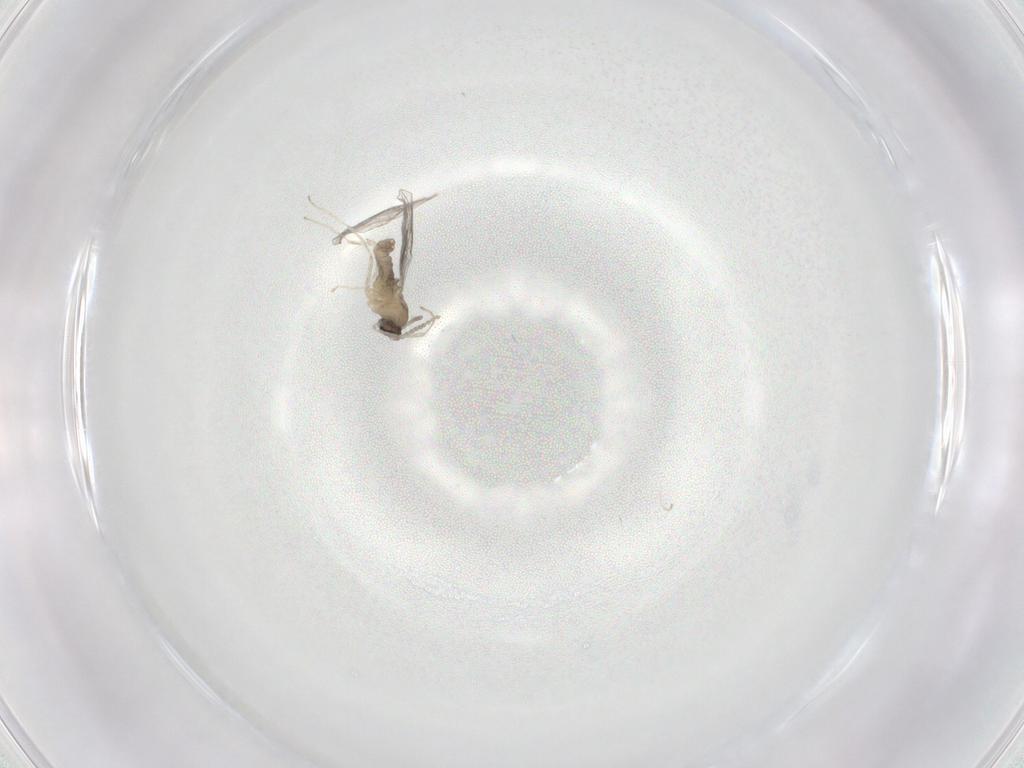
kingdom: Animalia
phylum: Arthropoda
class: Insecta
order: Diptera
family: Cecidomyiidae
